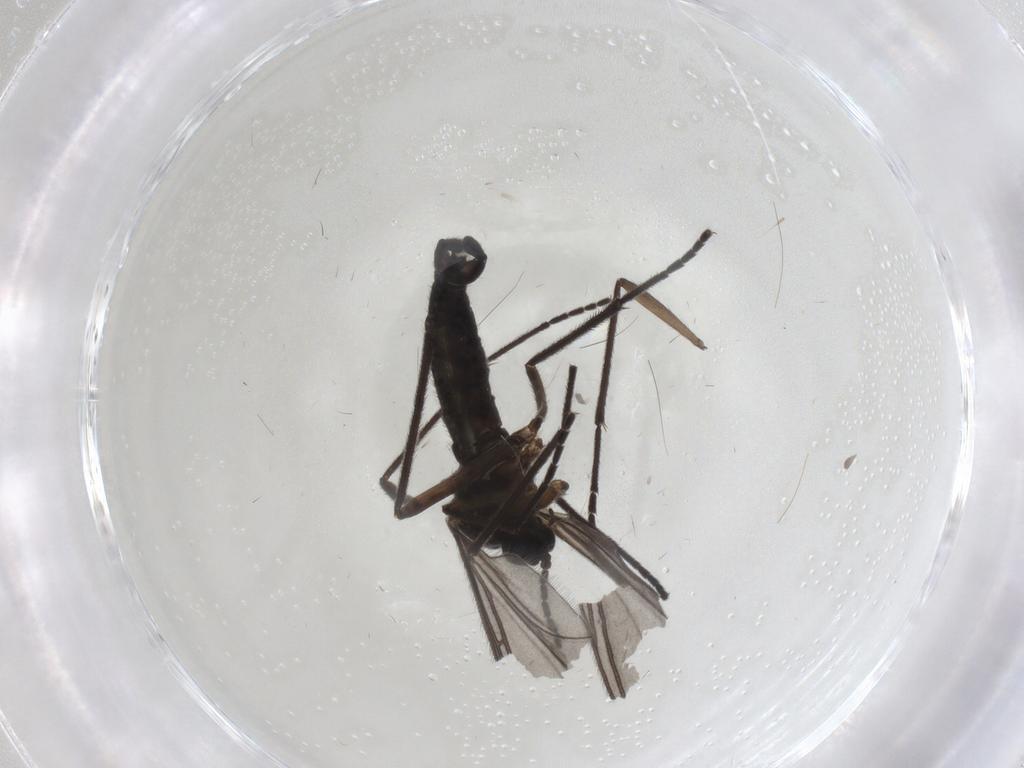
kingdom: Animalia
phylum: Arthropoda
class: Insecta
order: Diptera
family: Sciaridae
